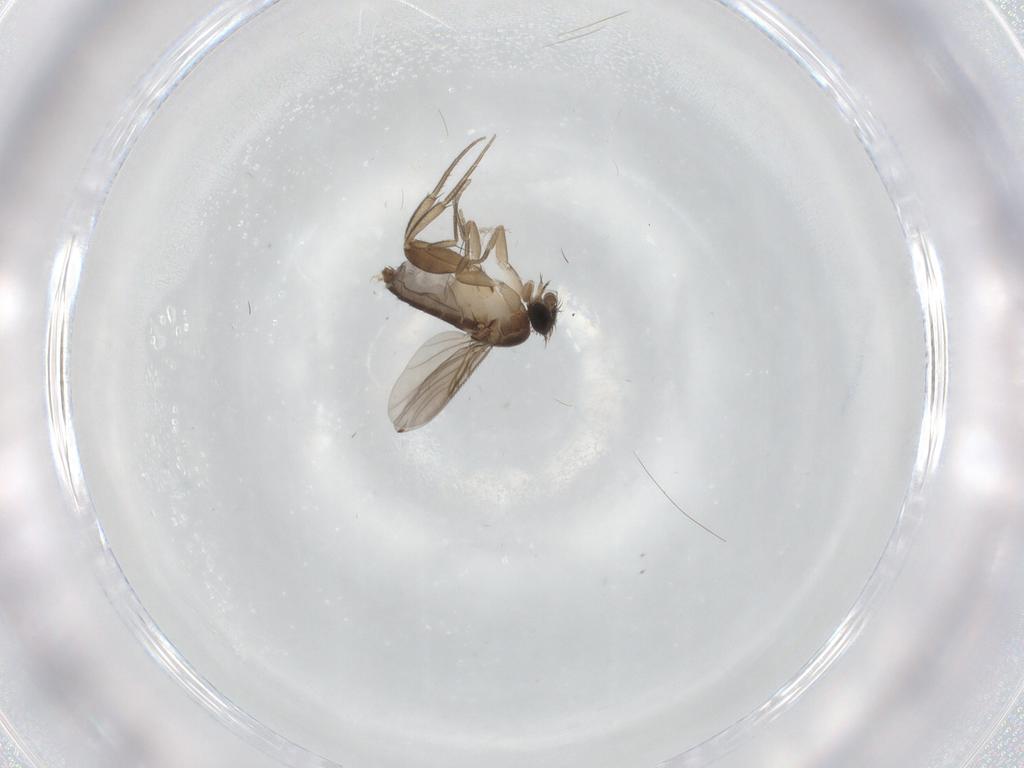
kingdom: Animalia
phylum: Arthropoda
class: Insecta
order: Diptera
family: Phoridae
